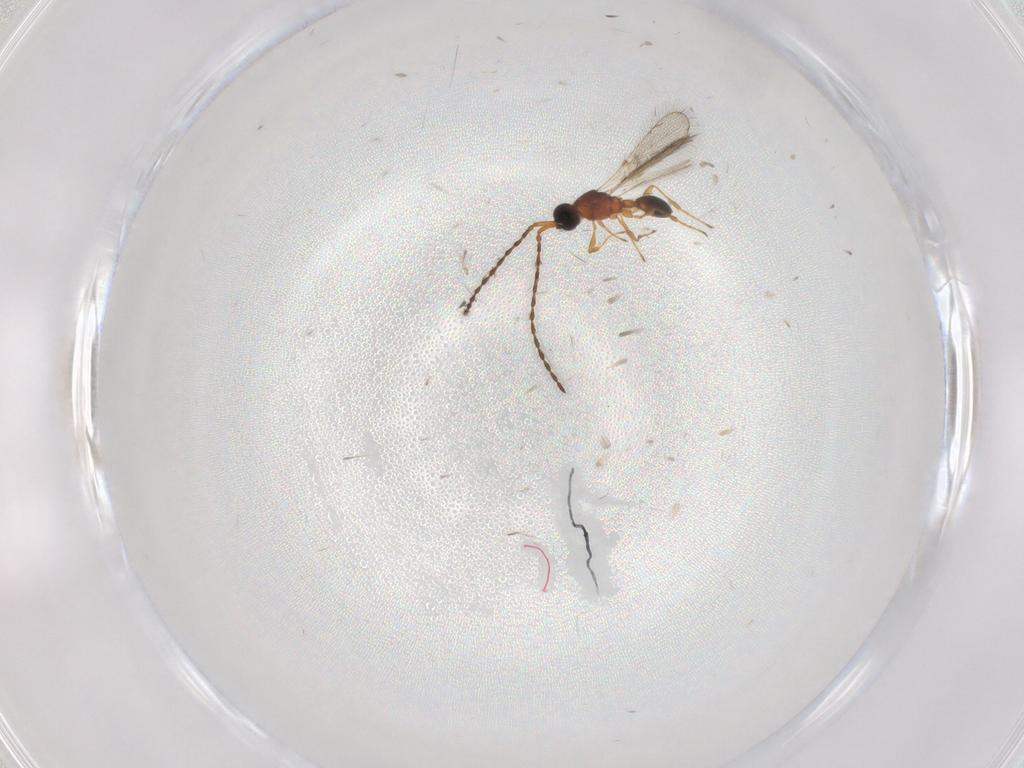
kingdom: Animalia
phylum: Arthropoda
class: Insecta
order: Hymenoptera
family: Diapriidae
